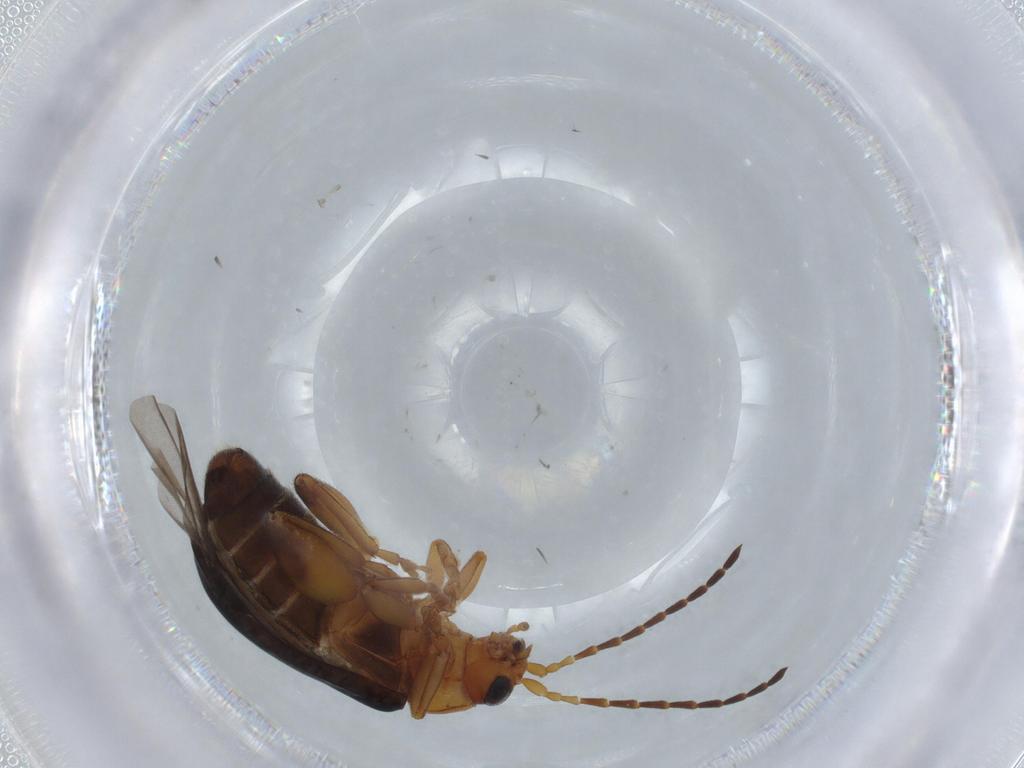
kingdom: Animalia
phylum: Arthropoda
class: Insecta
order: Coleoptera
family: Chrysomelidae
